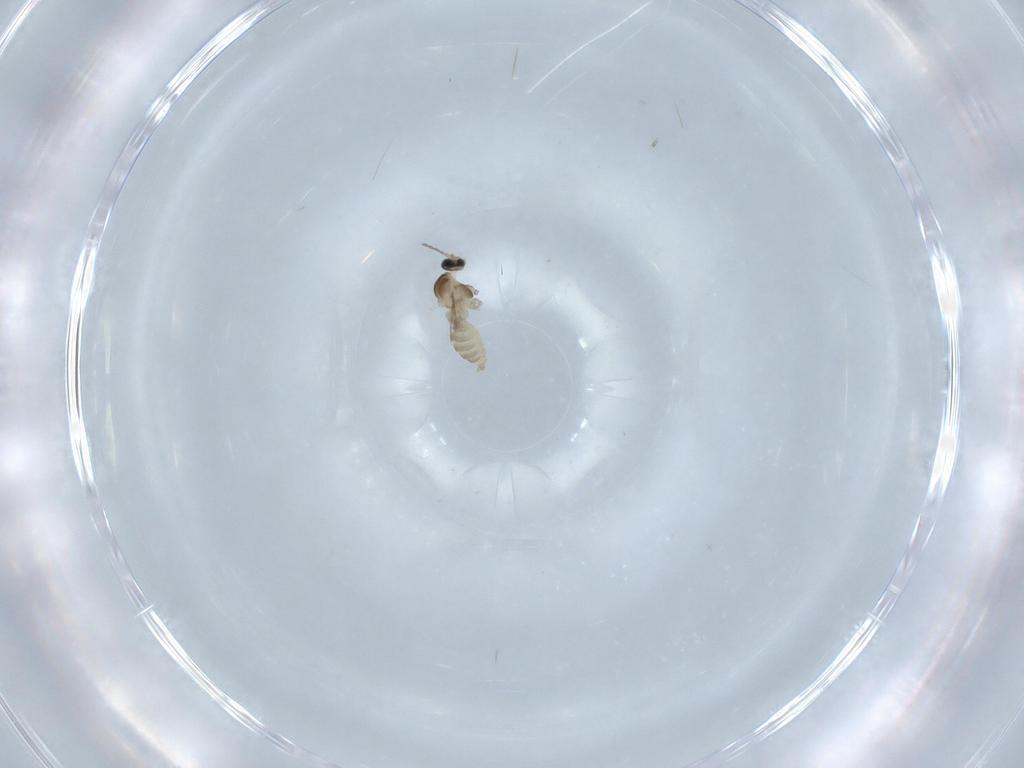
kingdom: Animalia
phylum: Arthropoda
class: Insecta
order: Diptera
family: Cecidomyiidae
